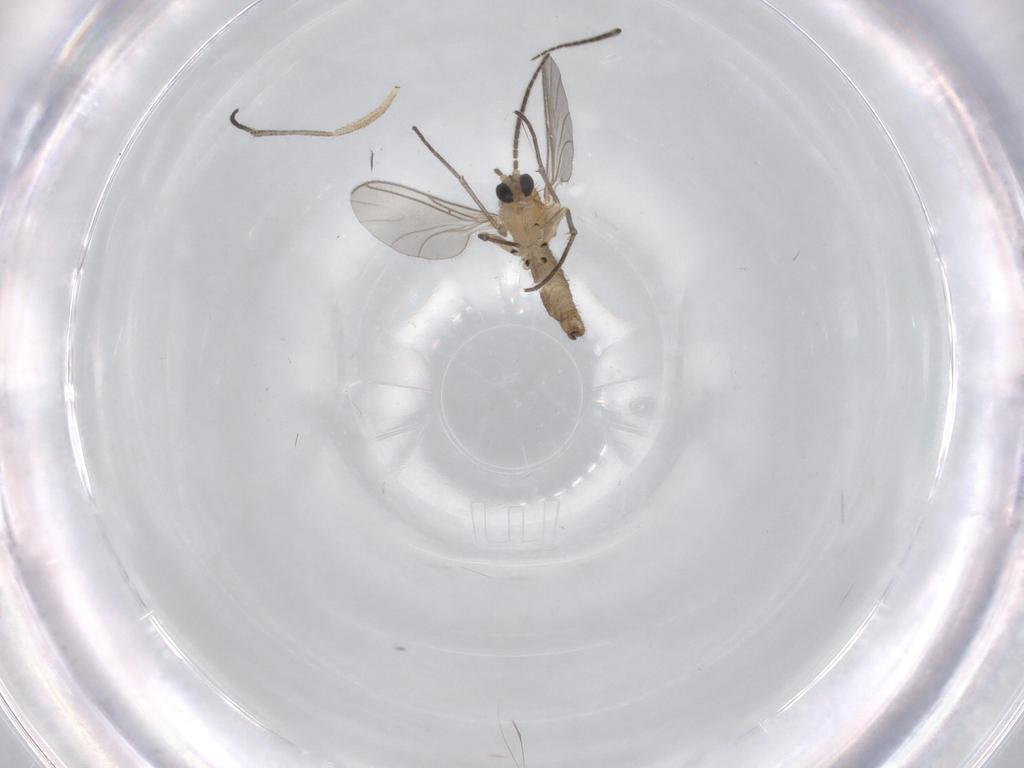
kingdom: Animalia
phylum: Arthropoda
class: Insecta
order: Diptera
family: Sciaridae
